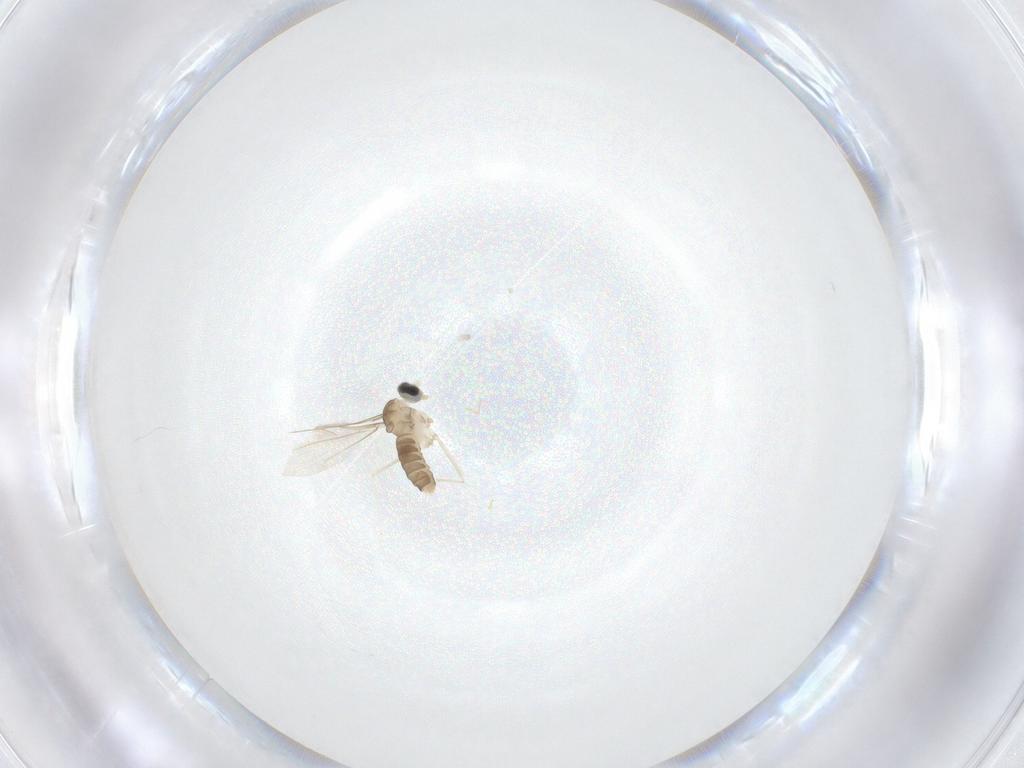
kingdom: Animalia
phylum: Arthropoda
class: Insecta
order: Diptera
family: Cecidomyiidae
